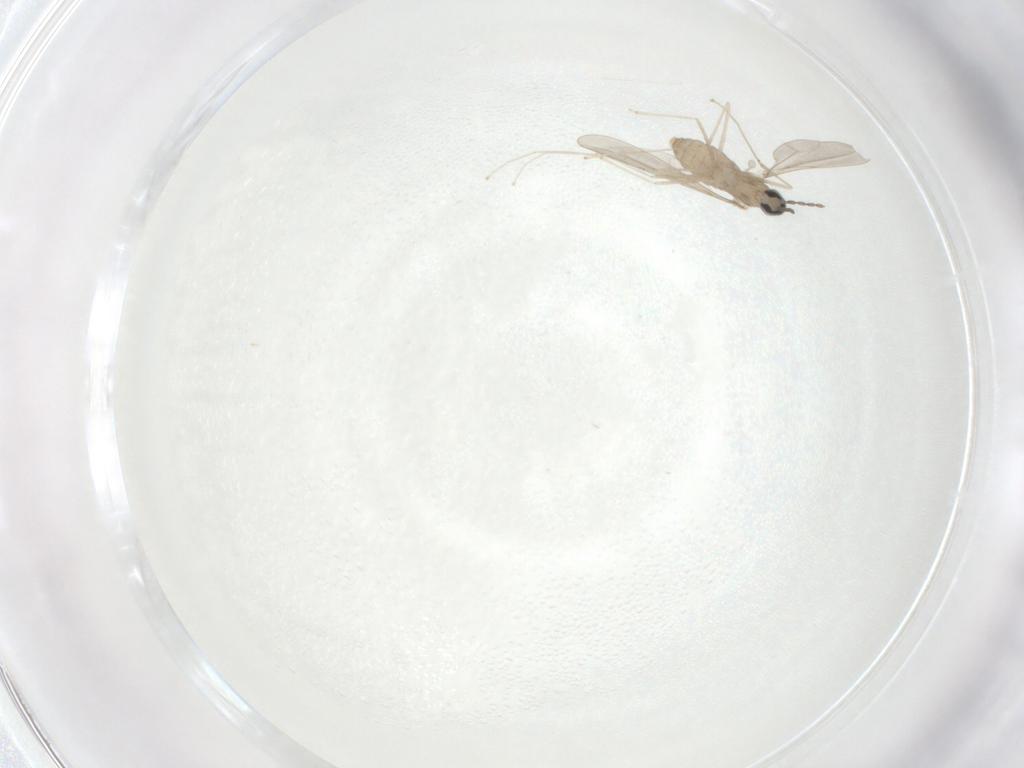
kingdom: Animalia
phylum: Arthropoda
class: Insecta
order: Diptera
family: Cecidomyiidae
